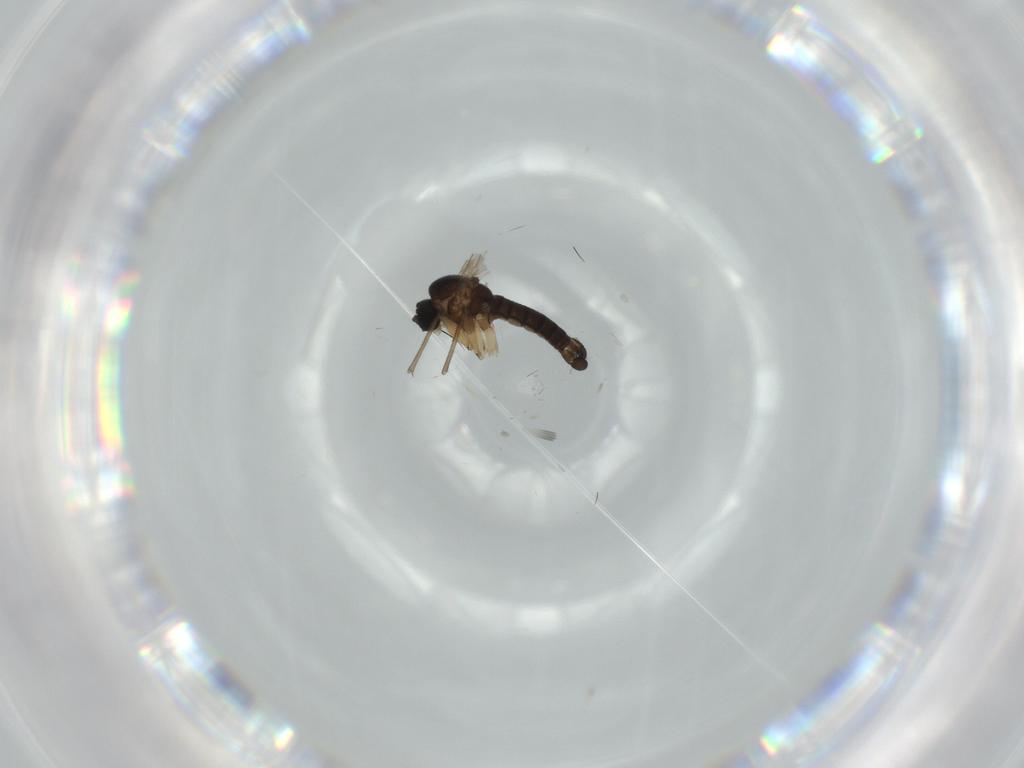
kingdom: Animalia
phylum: Arthropoda
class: Insecta
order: Diptera
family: Sciaridae
